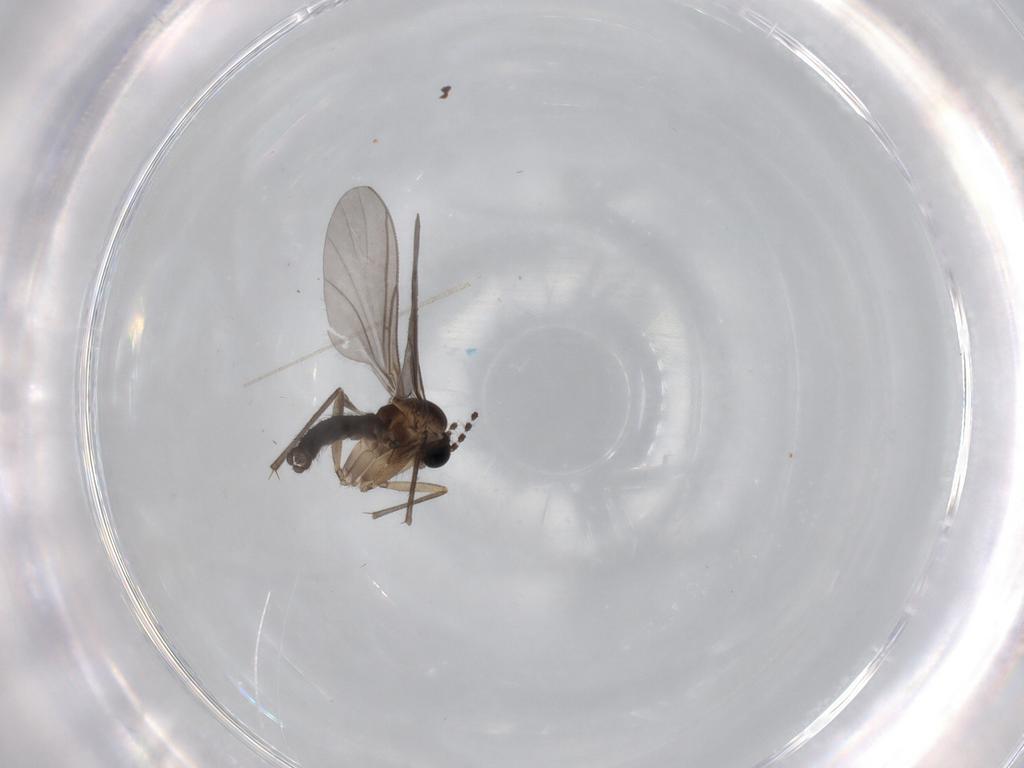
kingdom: Animalia
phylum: Arthropoda
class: Insecta
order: Diptera
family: Sciaridae
